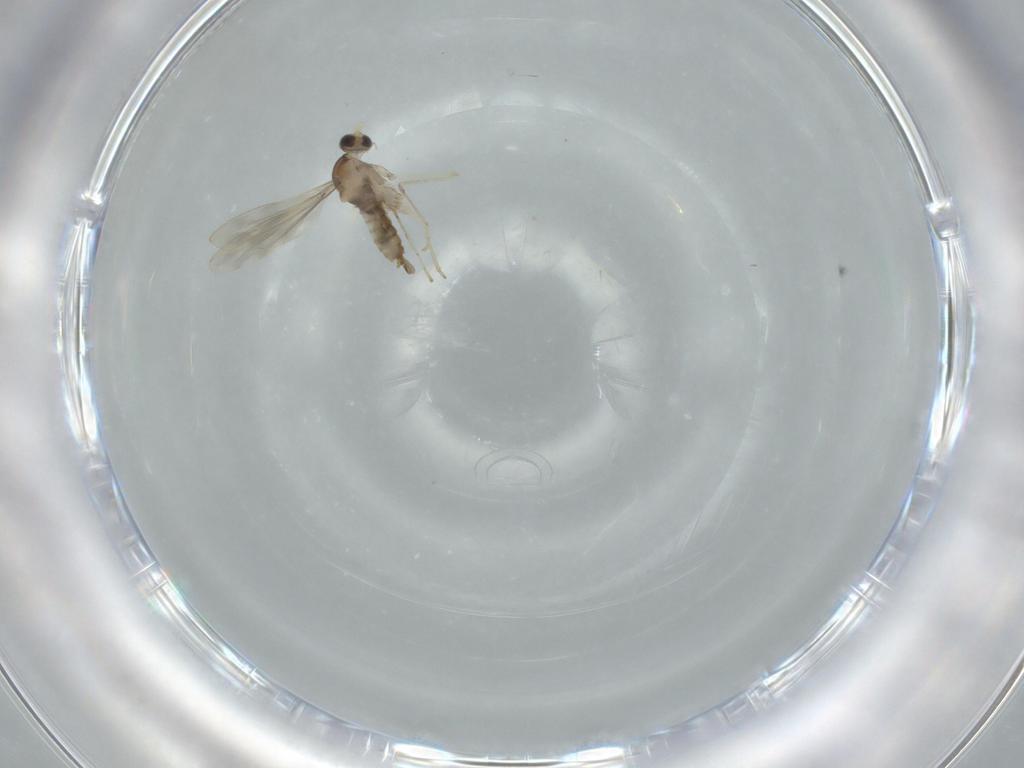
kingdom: Animalia
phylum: Arthropoda
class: Insecta
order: Diptera
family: Cecidomyiidae
